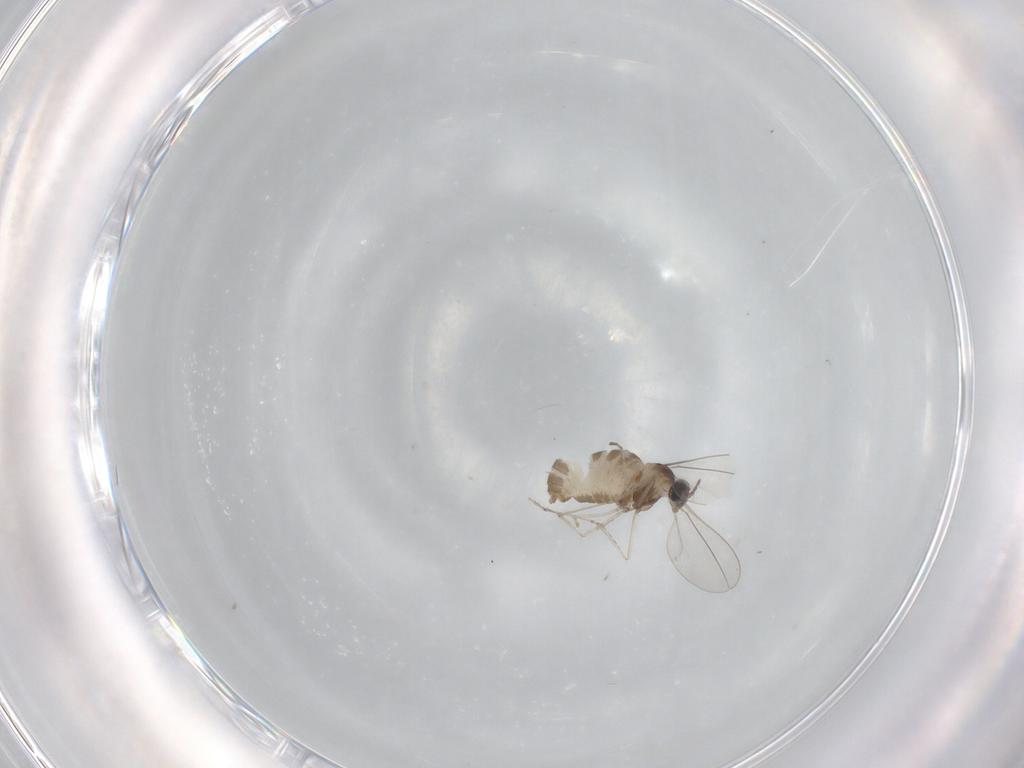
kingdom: Animalia
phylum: Arthropoda
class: Insecta
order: Diptera
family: Cecidomyiidae
